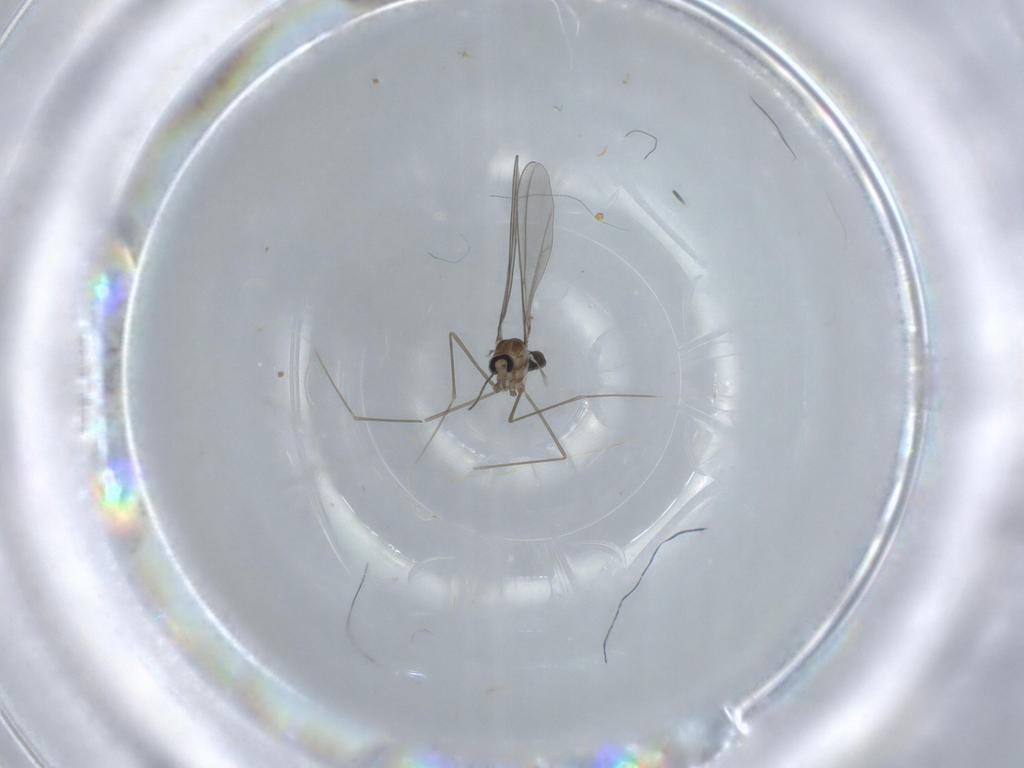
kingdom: Animalia
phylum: Arthropoda
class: Insecta
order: Diptera
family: Cecidomyiidae
